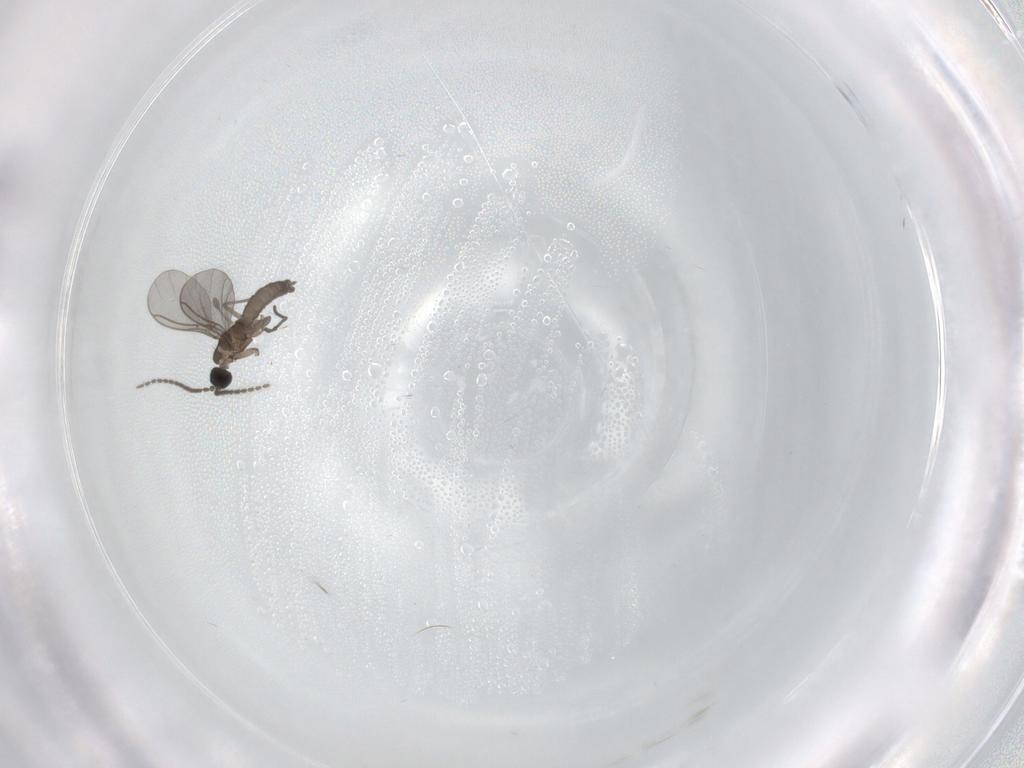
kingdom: Animalia
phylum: Arthropoda
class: Insecta
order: Diptera
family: Sciaridae
